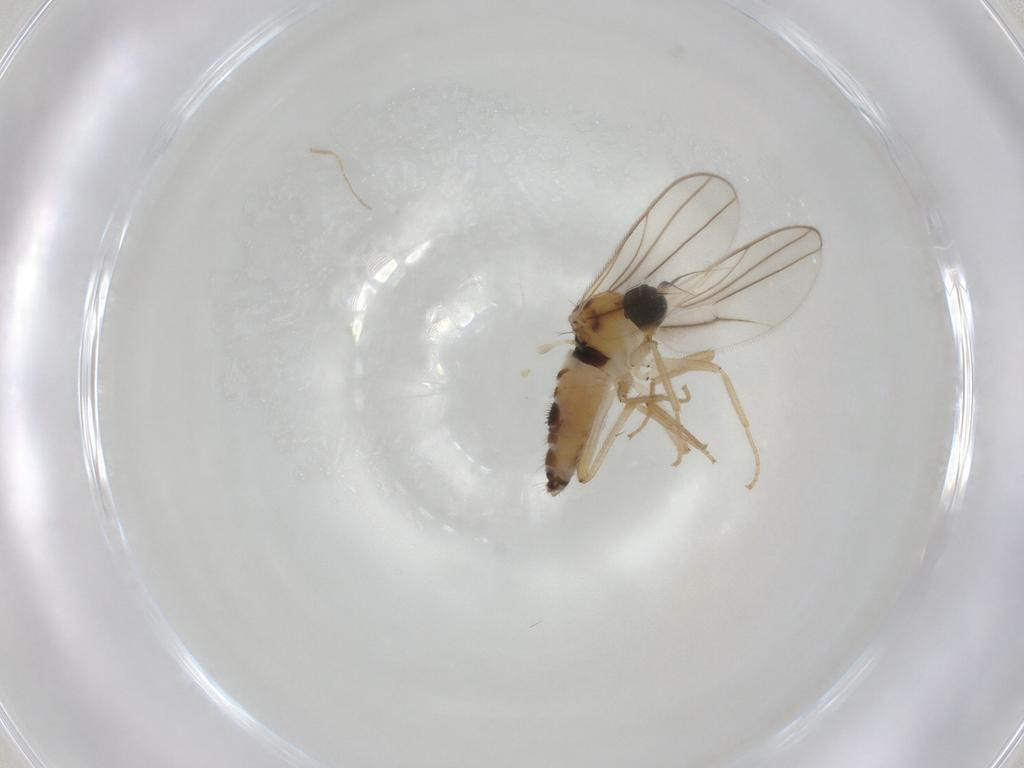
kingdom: Animalia
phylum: Arthropoda
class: Insecta
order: Diptera
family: Hybotidae
